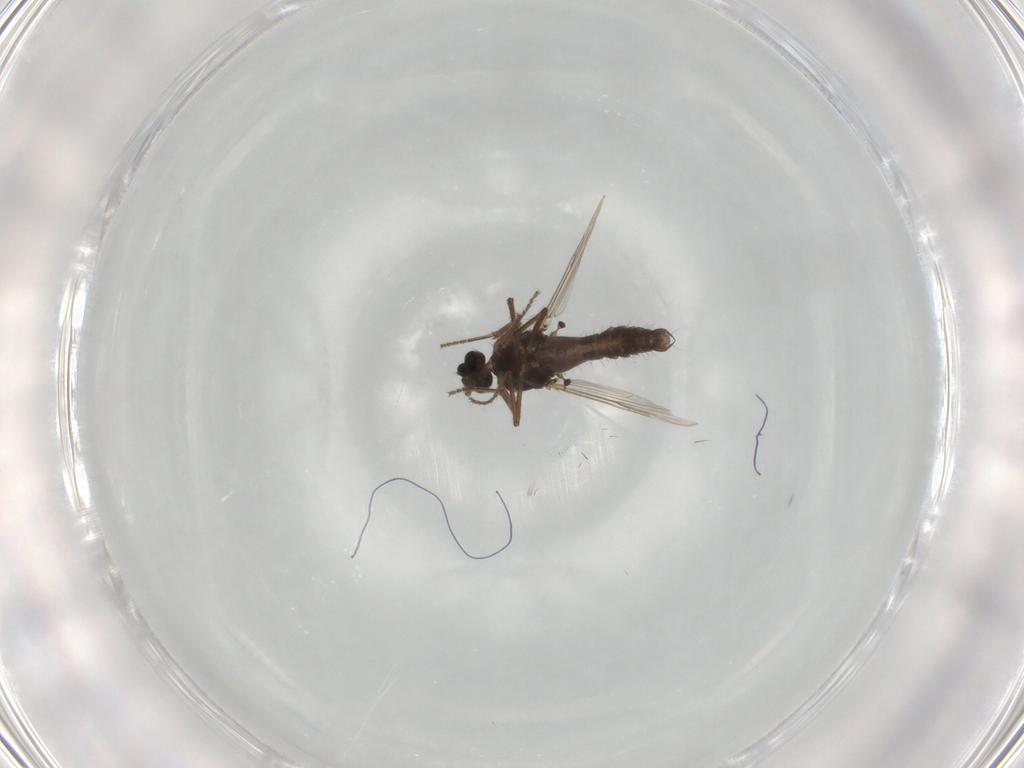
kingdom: Animalia
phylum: Arthropoda
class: Insecta
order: Diptera
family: Ceratopogonidae
